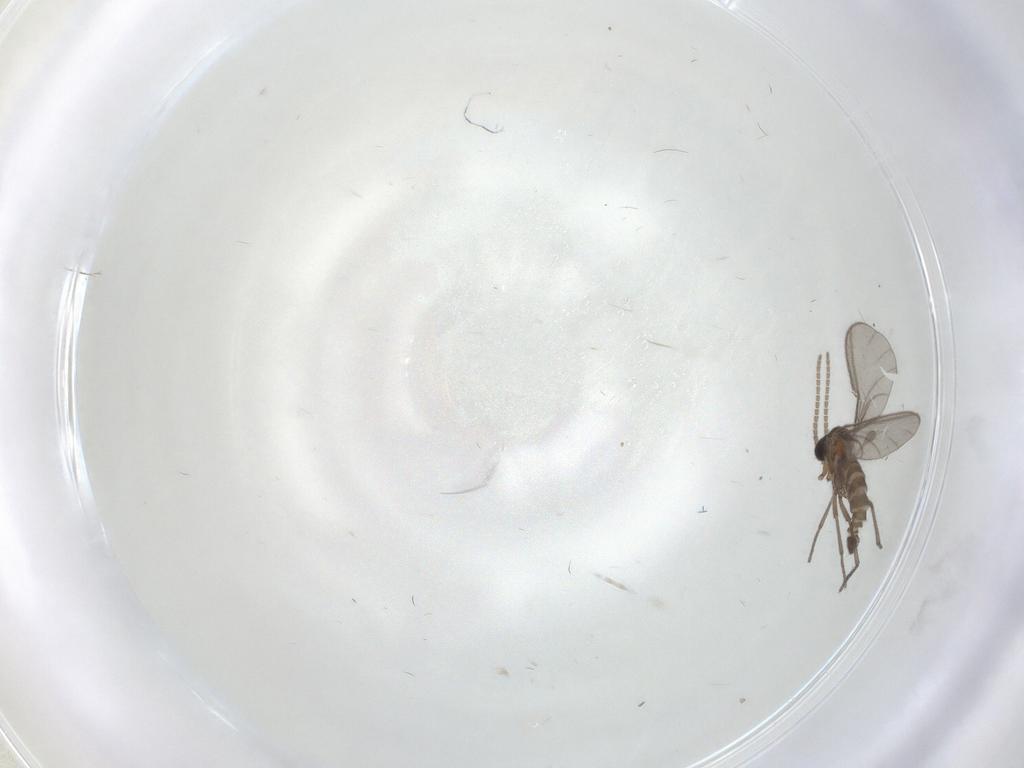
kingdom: Animalia
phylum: Arthropoda
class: Insecta
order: Diptera
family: Sciaridae
